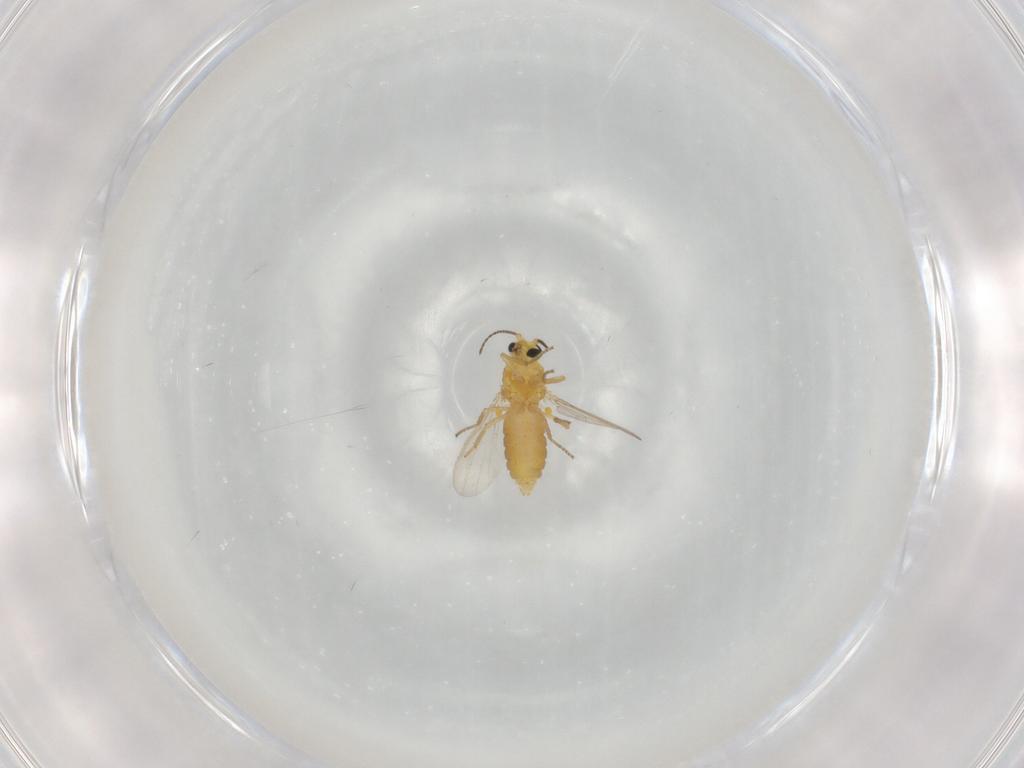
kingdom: Animalia
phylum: Arthropoda
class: Insecta
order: Diptera
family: Ceratopogonidae
